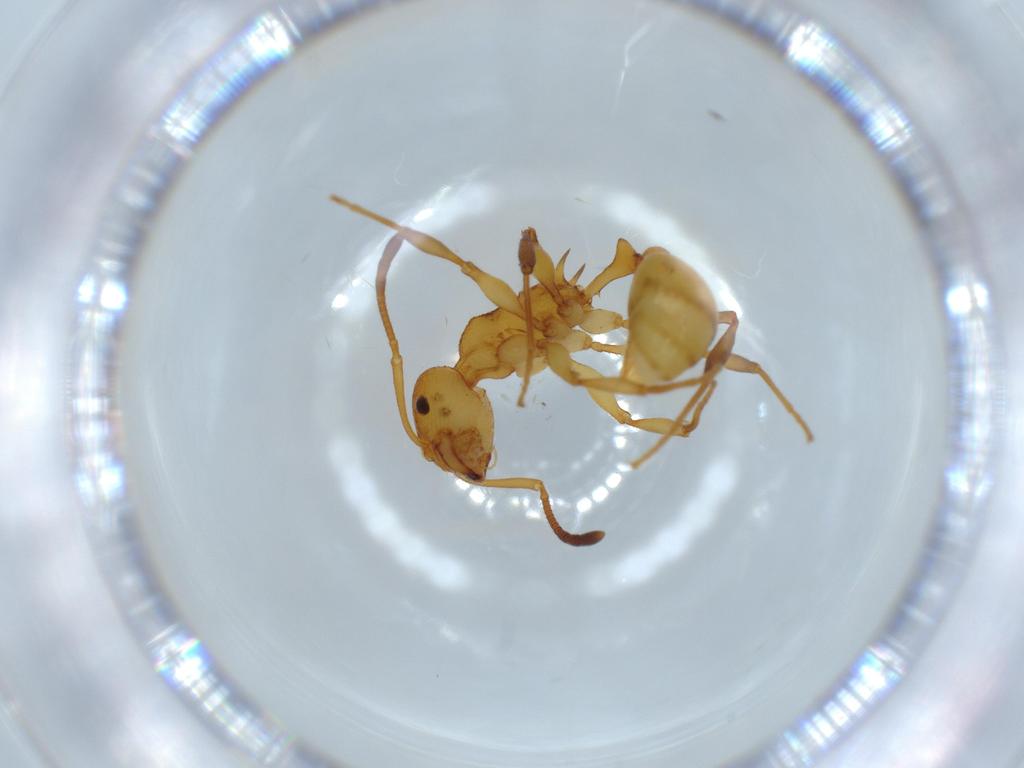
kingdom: Animalia
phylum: Arthropoda
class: Insecta
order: Hymenoptera
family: Formicidae
